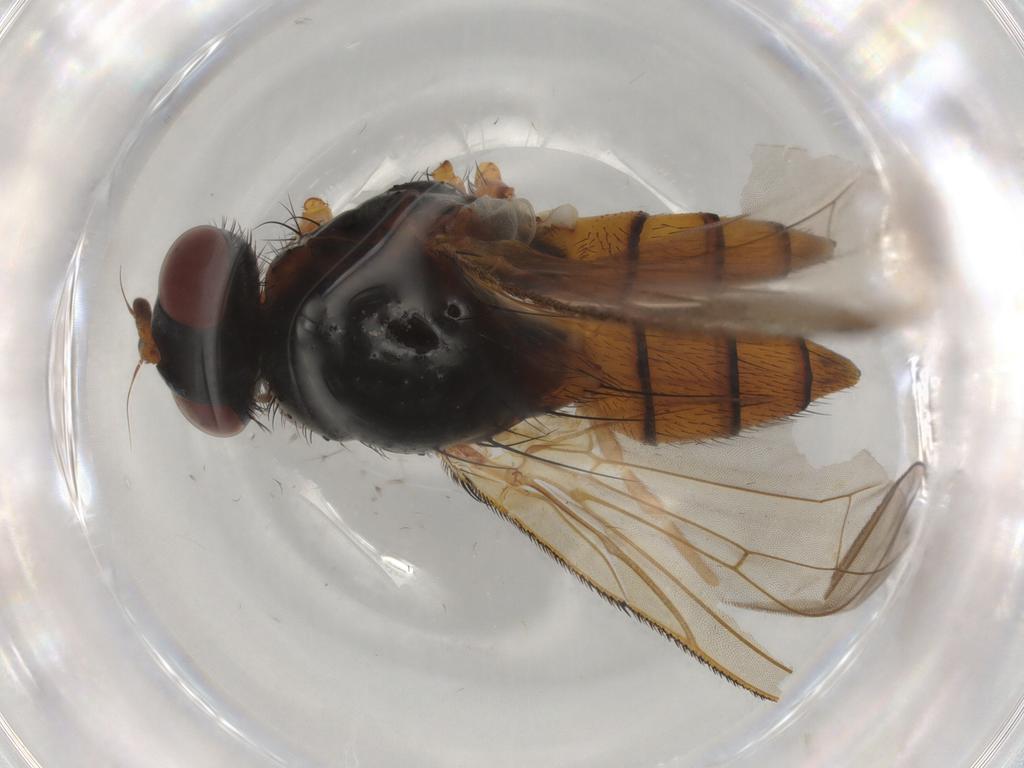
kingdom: Animalia
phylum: Arthropoda
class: Insecta
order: Diptera
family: Anthomyiidae
